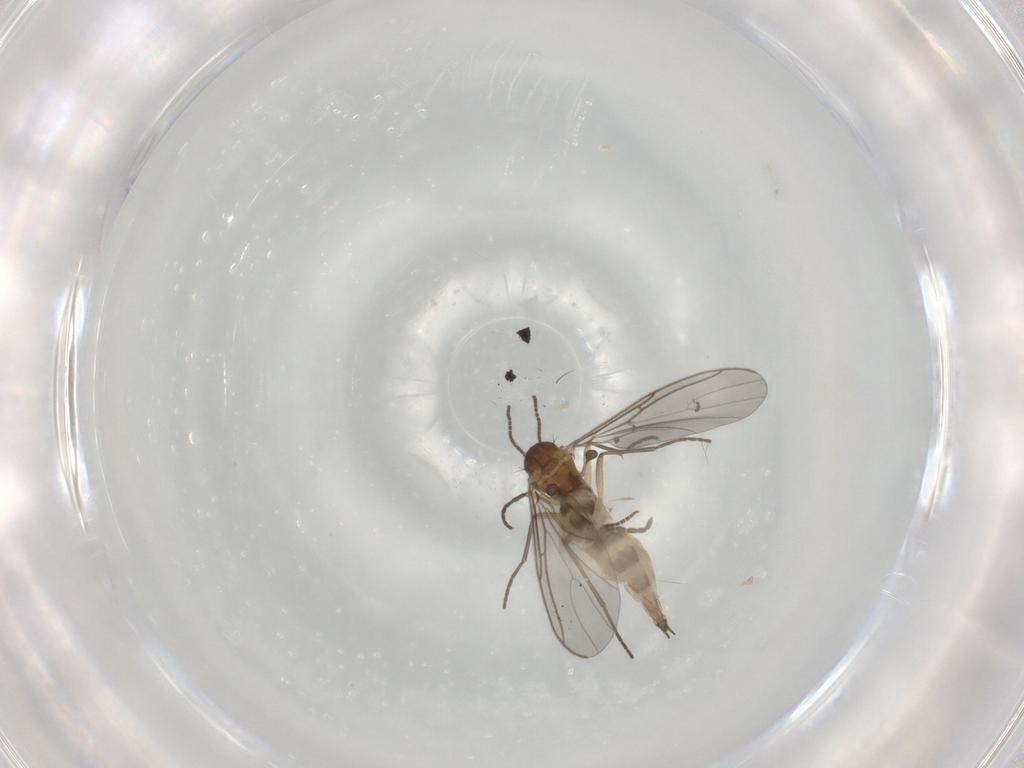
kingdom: Animalia
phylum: Arthropoda
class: Insecta
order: Diptera
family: Sciaridae
